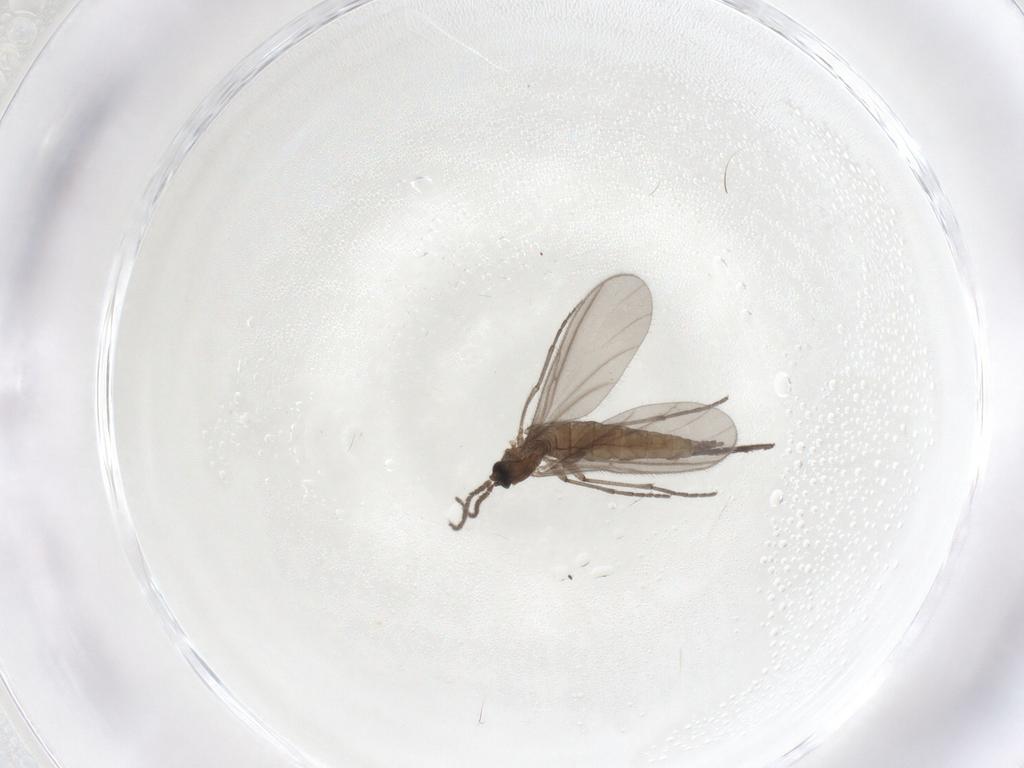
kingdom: Animalia
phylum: Arthropoda
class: Insecta
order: Diptera
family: Sciaridae
